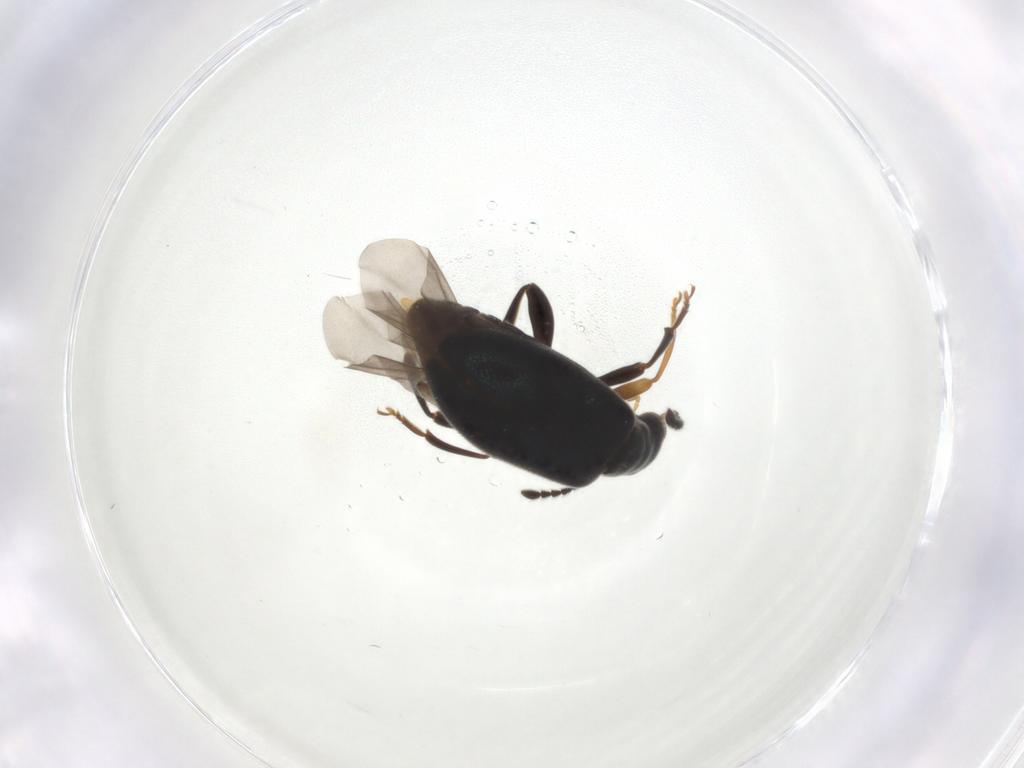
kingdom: Animalia
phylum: Arthropoda
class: Insecta
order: Coleoptera
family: Aderidae
